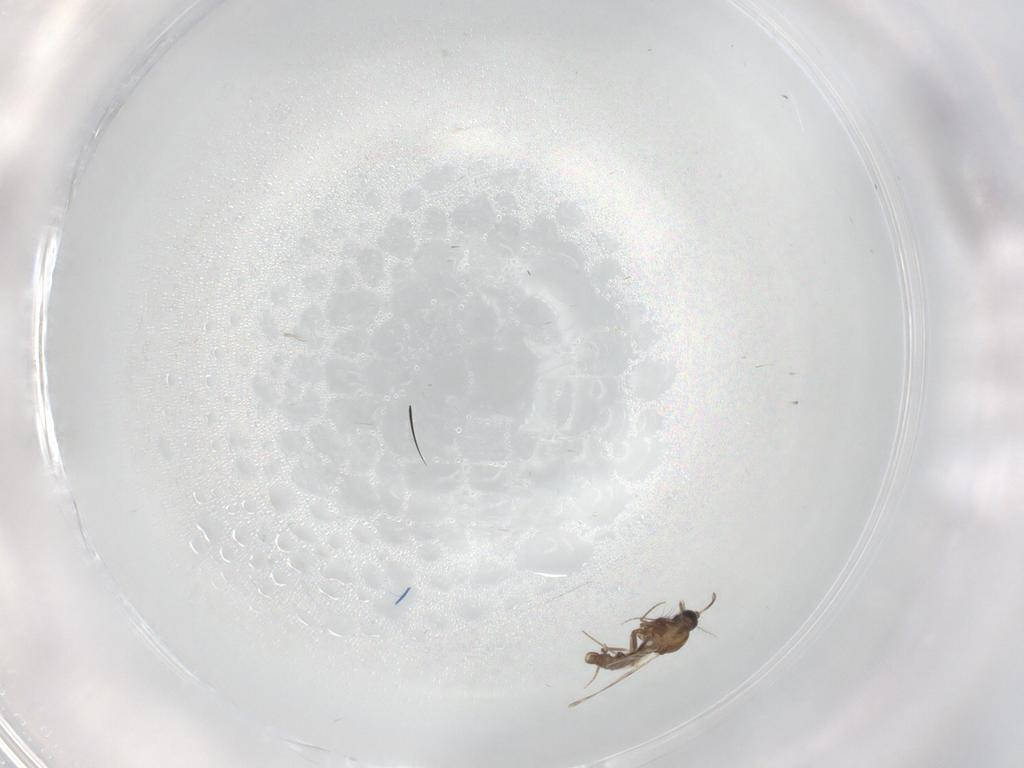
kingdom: Animalia
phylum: Arthropoda
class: Insecta
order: Diptera
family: Ceratopogonidae
